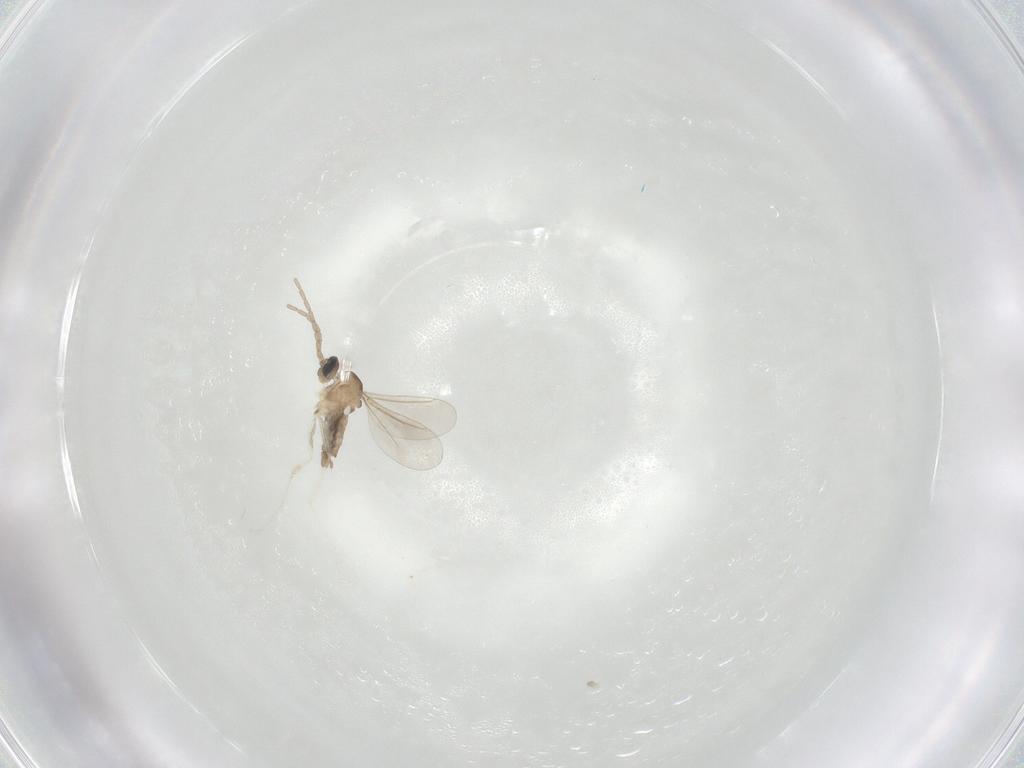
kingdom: Animalia
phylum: Arthropoda
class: Insecta
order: Diptera
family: Cecidomyiidae
